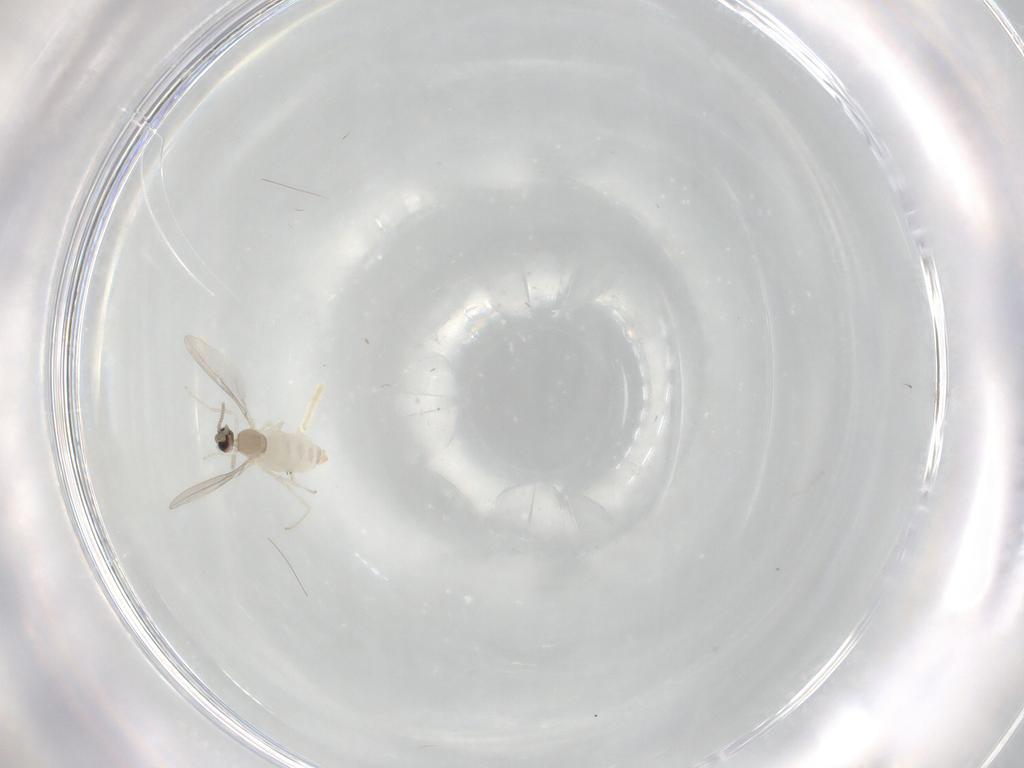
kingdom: Animalia
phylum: Arthropoda
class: Insecta
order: Diptera
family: Cecidomyiidae
